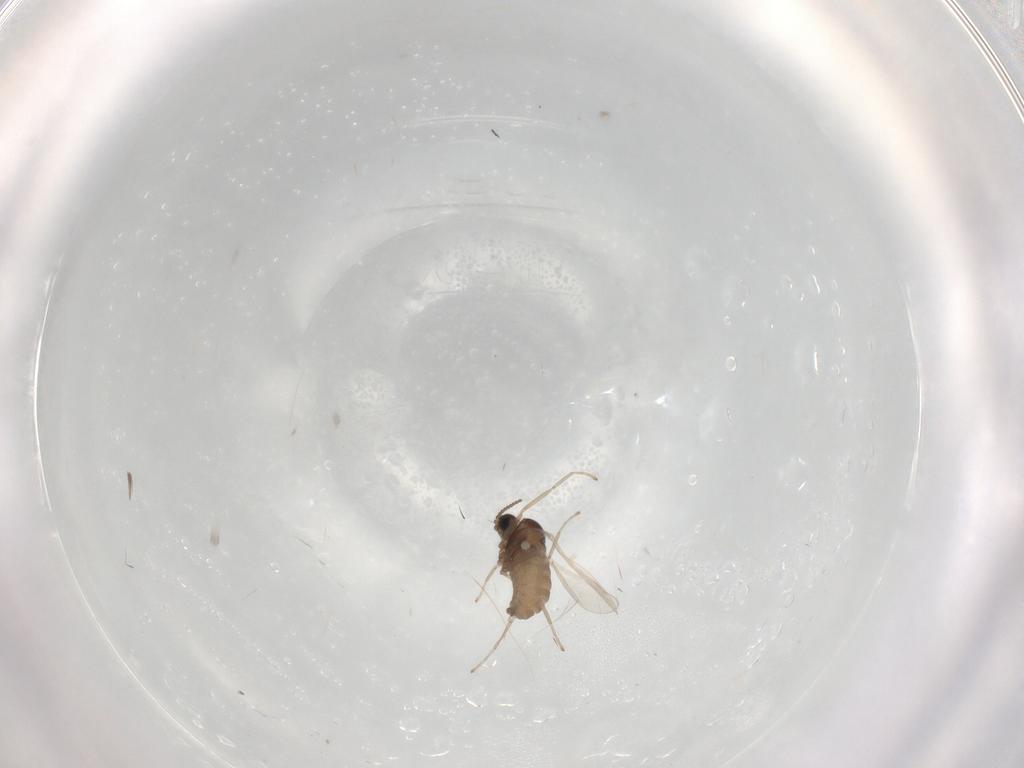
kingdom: Animalia
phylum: Arthropoda
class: Insecta
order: Diptera
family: Cecidomyiidae
